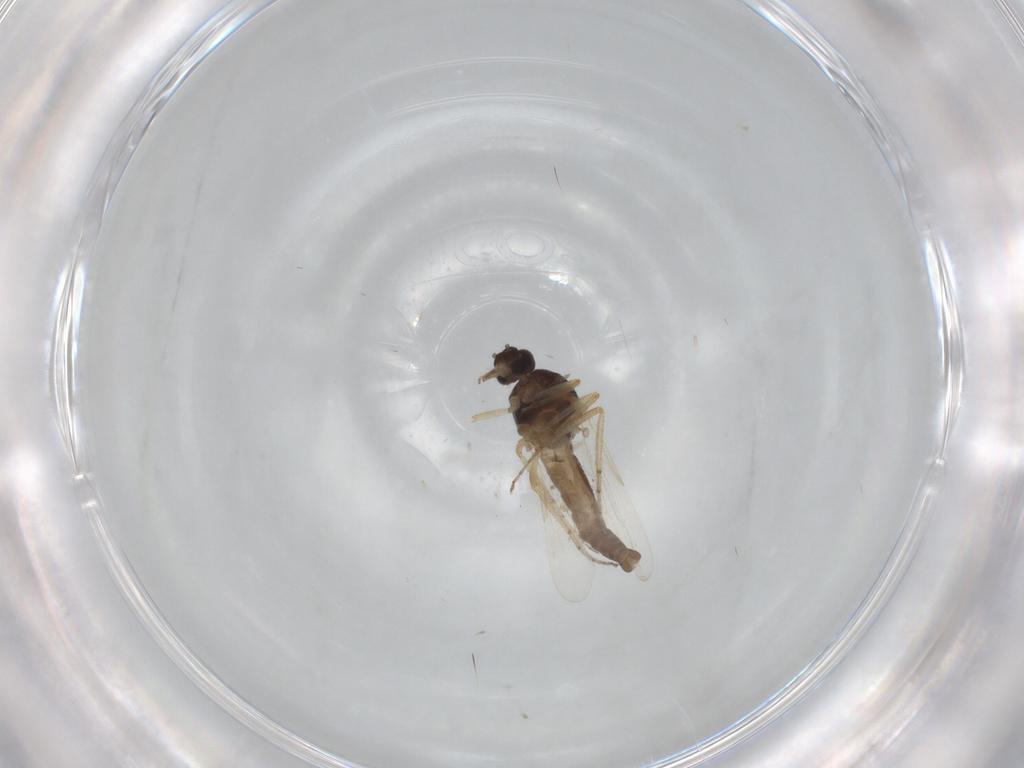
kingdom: Animalia
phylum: Arthropoda
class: Insecta
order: Diptera
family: Ceratopogonidae
